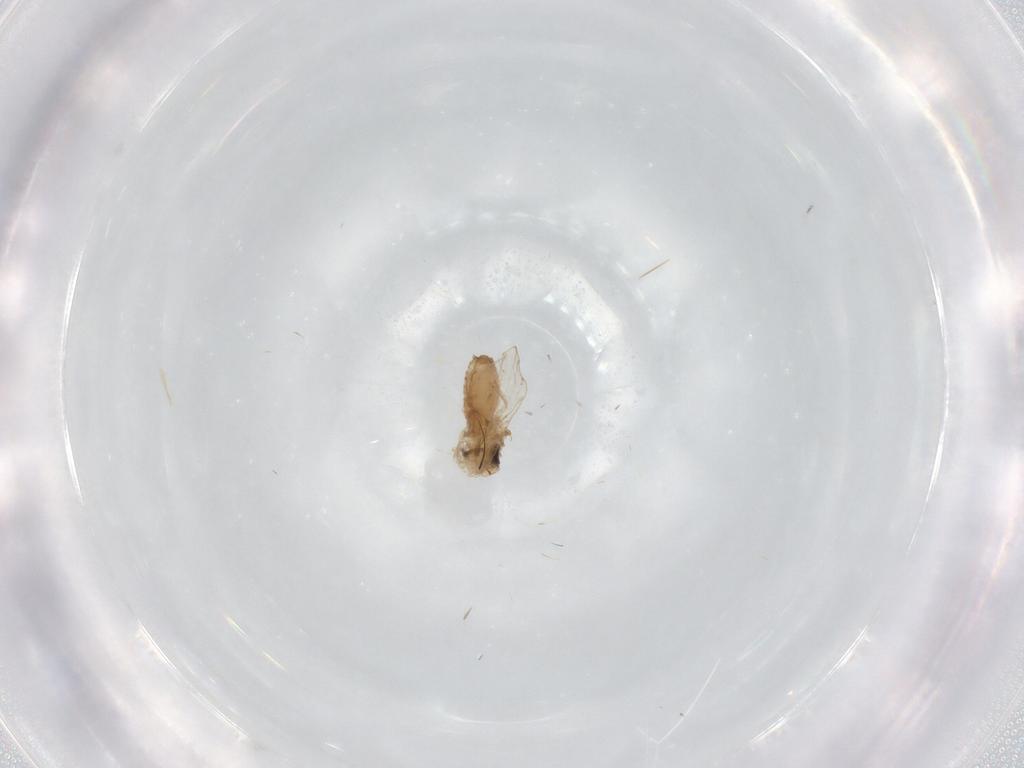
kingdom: Animalia
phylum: Arthropoda
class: Insecta
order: Diptera
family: Psychodidae
